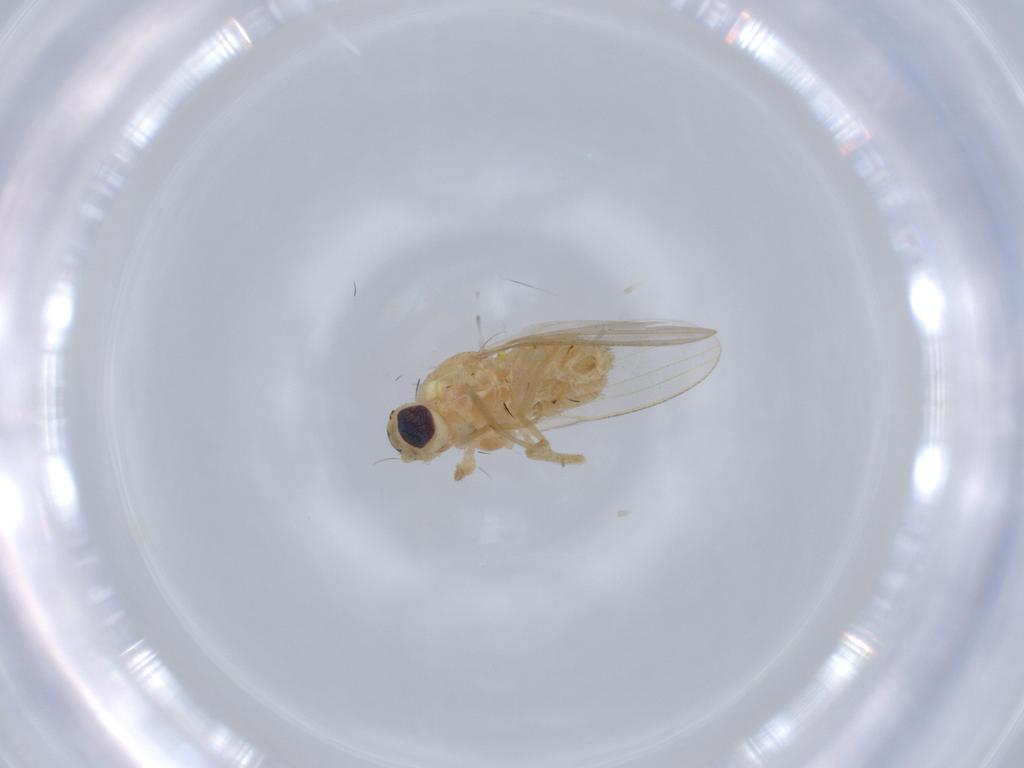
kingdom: Animalia
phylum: Arthropoda
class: Insecta
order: Diptera
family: Chyromyidae
